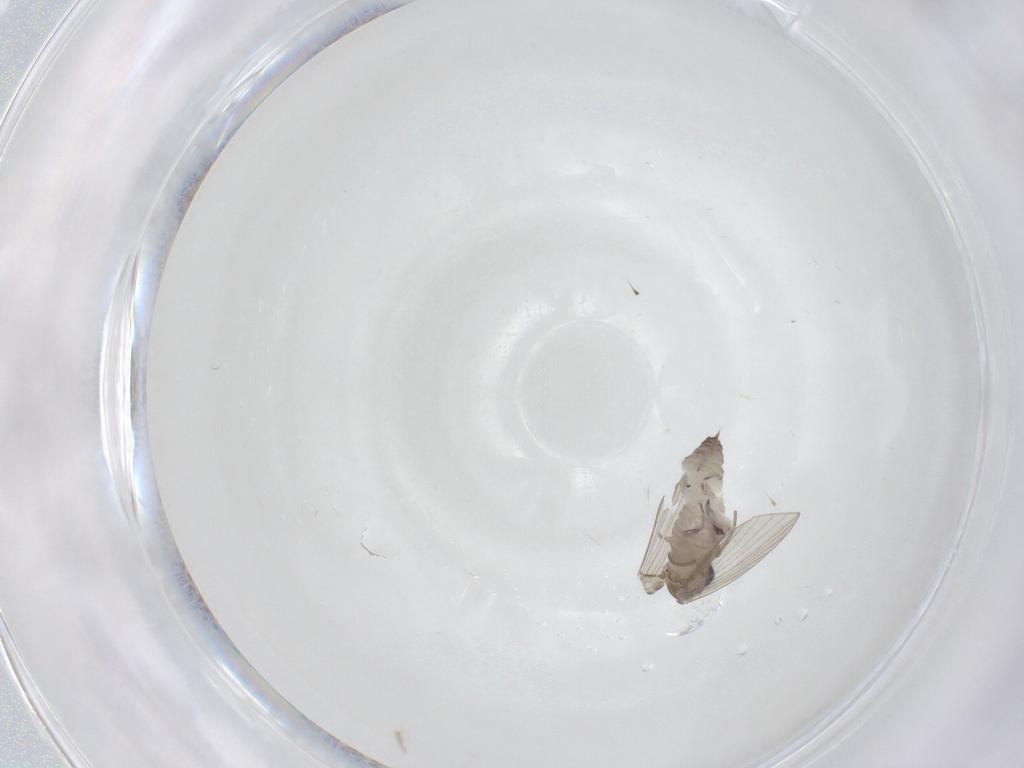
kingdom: Animalia
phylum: Arthropoda
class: Insecta
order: Diptera
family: Psychodidae
